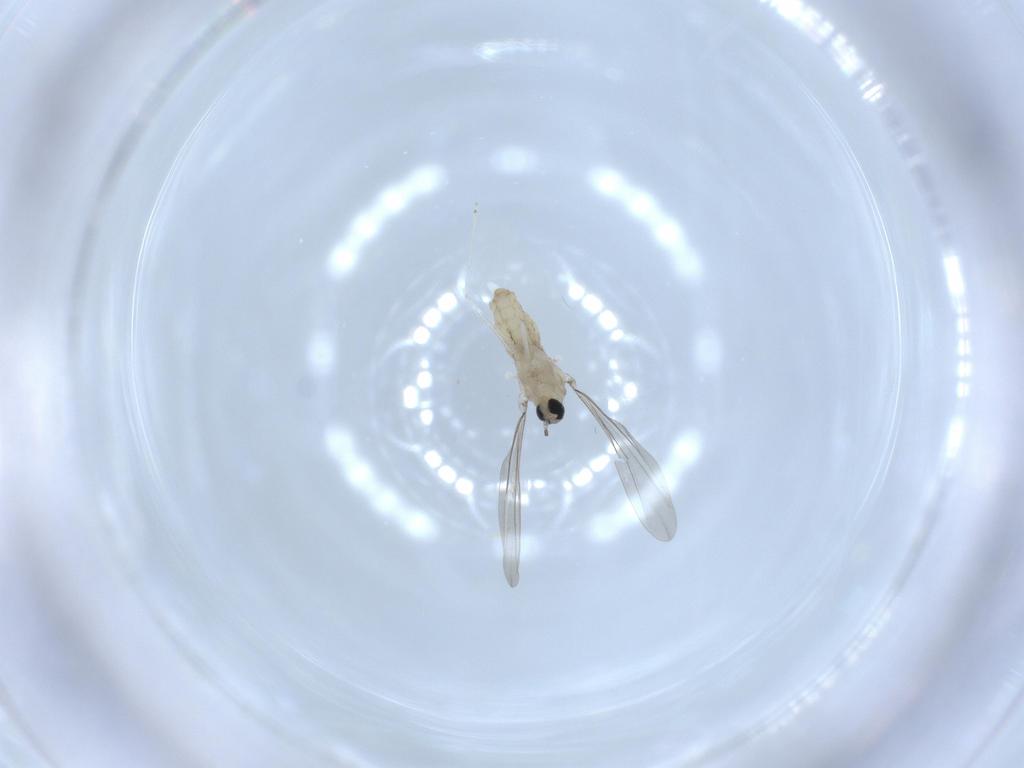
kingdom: Animalia
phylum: Arthropoda
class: Insecta
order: Diptera
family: Cecidomyiidae
